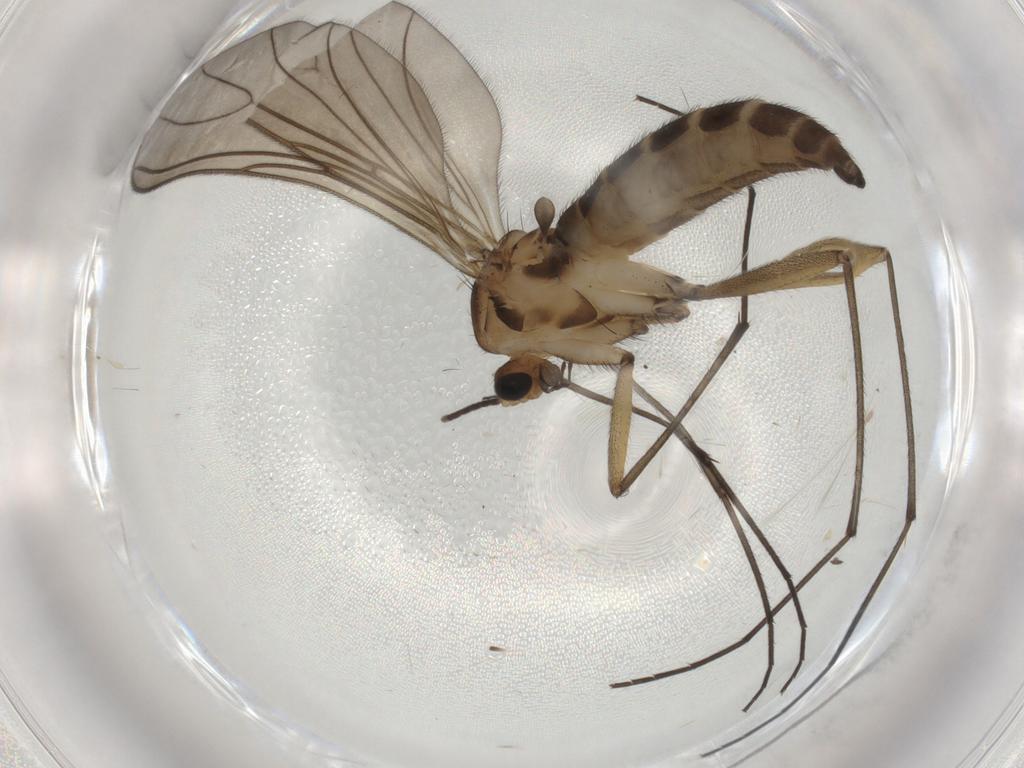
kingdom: Animalia
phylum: Arthropoda
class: Insecta
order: Diptera
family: Sciaridae
